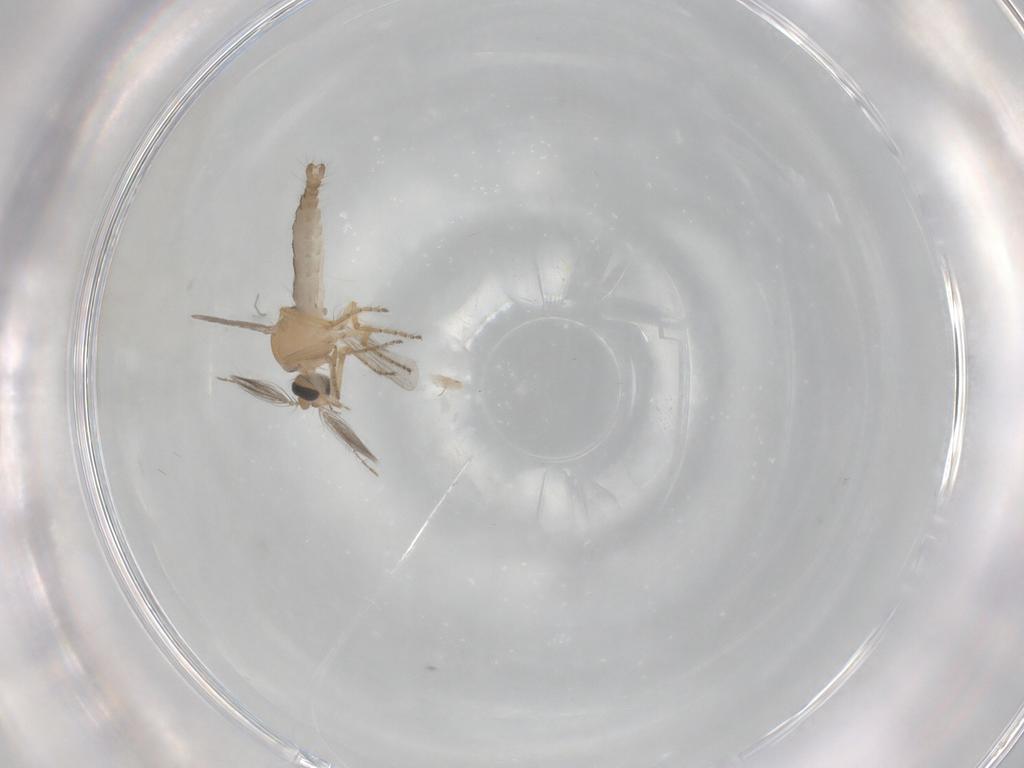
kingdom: Animalia
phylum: Arthropoda
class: Insecta
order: Diptera
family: Ceratopogonidae
